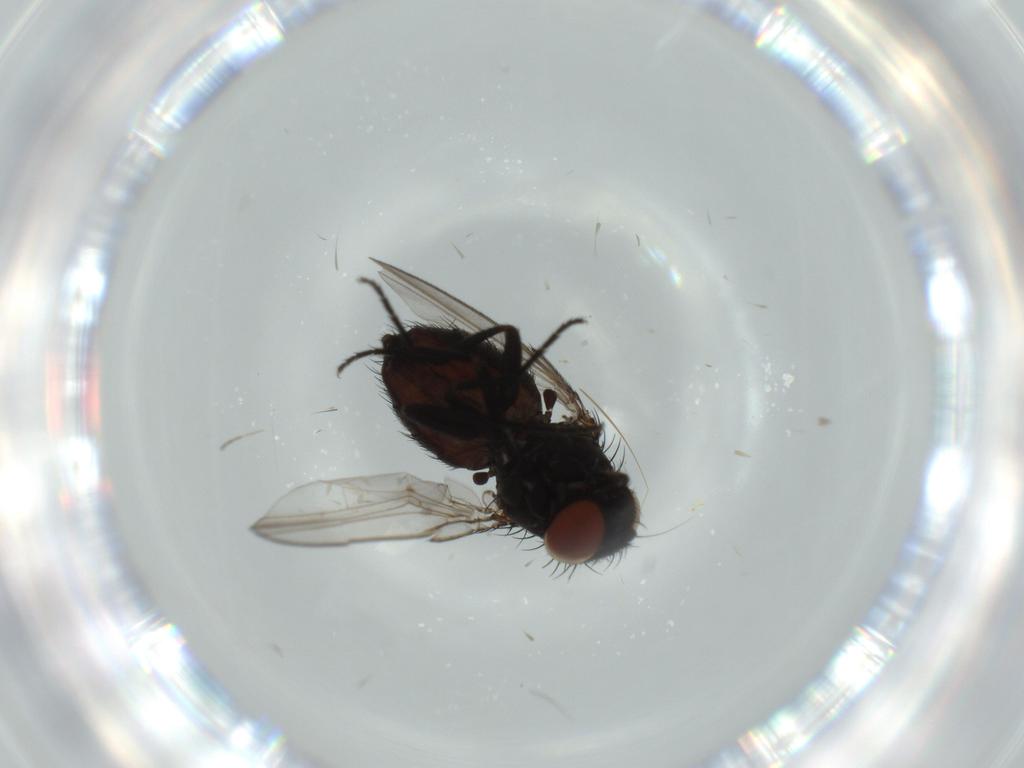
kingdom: Animalia
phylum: Arthropoda
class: Insecta
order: Diptera
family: Milichiidae
